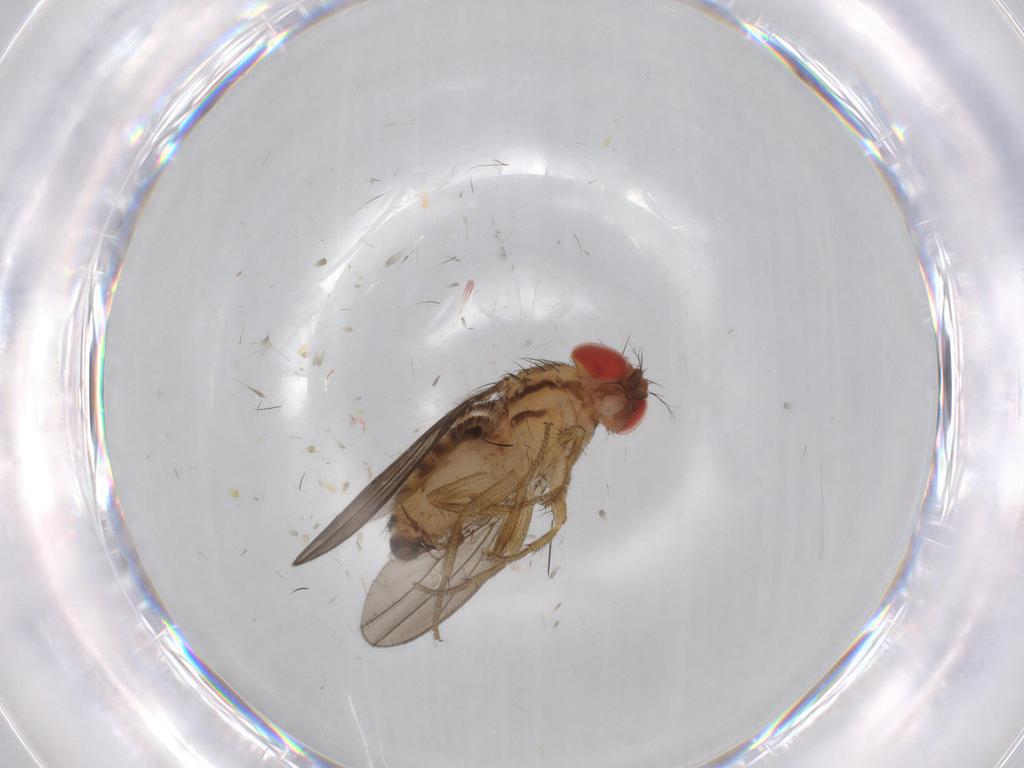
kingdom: Animalia
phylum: Arthropoda
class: Insecta
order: Diptera
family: Drosophilidae
